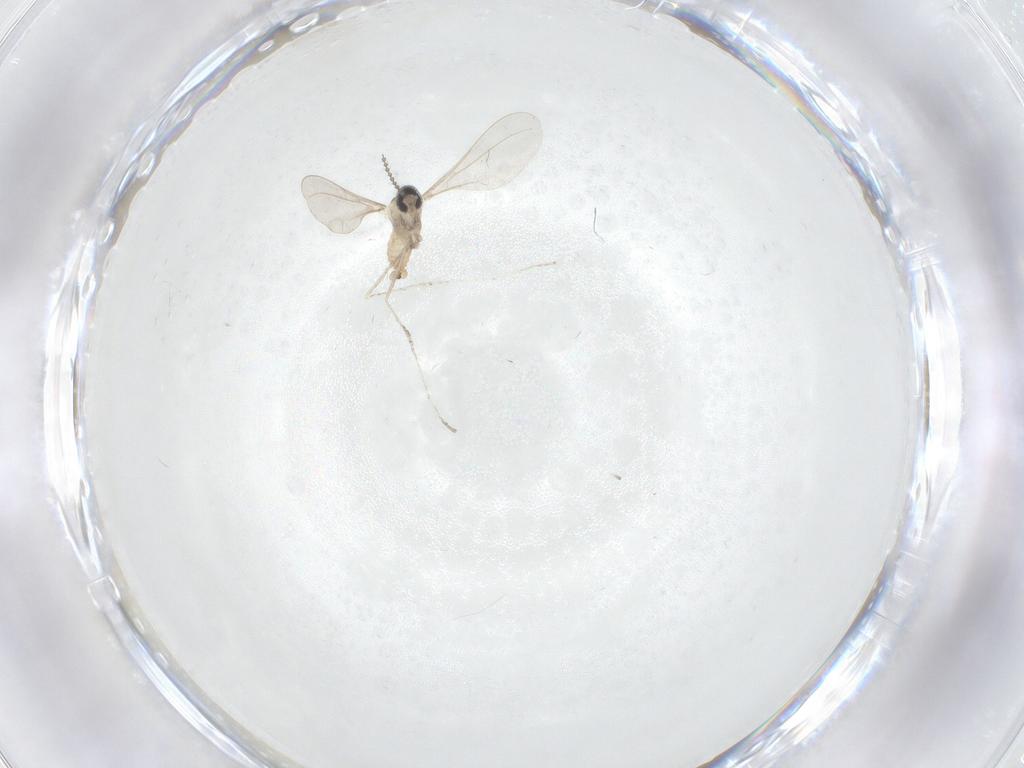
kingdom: Animalia
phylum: Arthropoda
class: Insecta
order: Diptera
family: Cecidomyiidae
